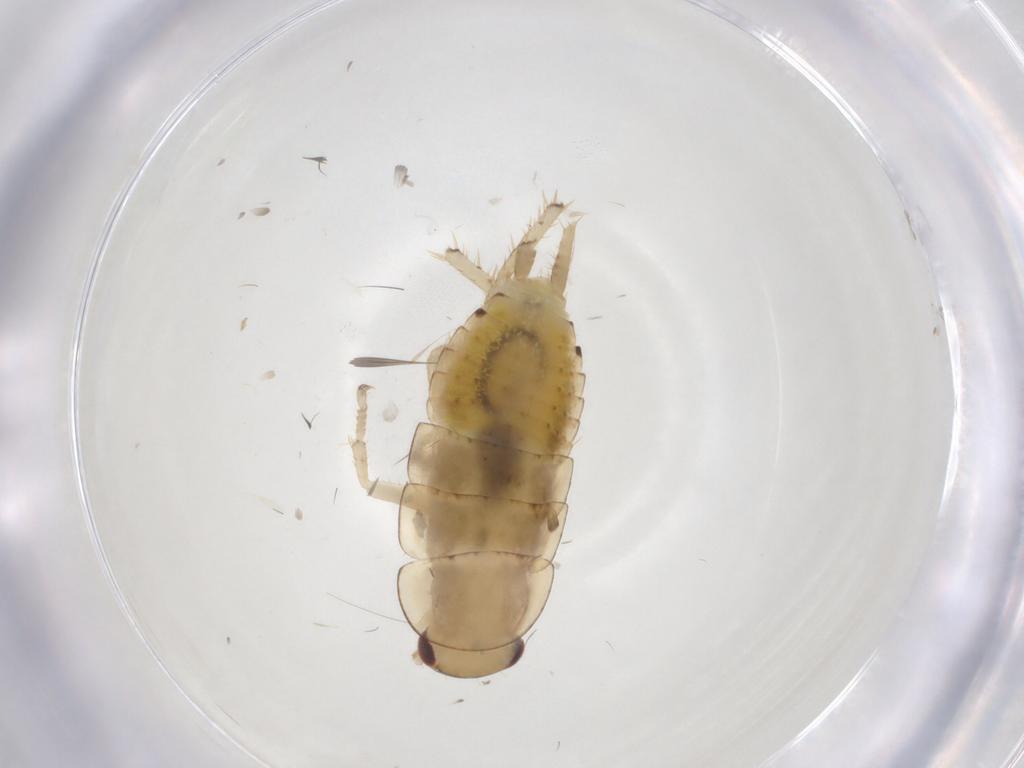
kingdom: Animalia
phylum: Arthropoda
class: Insecta
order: Blattodea
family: Ectobiidae
